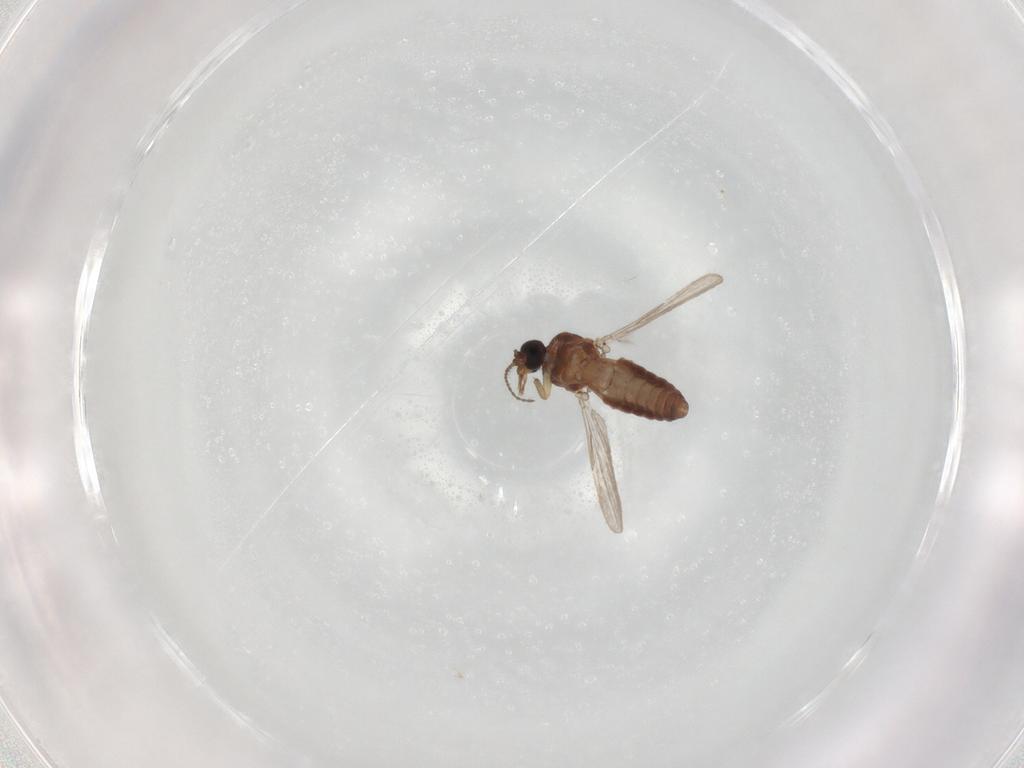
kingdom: Animalia
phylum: Arthropoda
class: Insecta
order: Diptera
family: Ceratopogonidae
